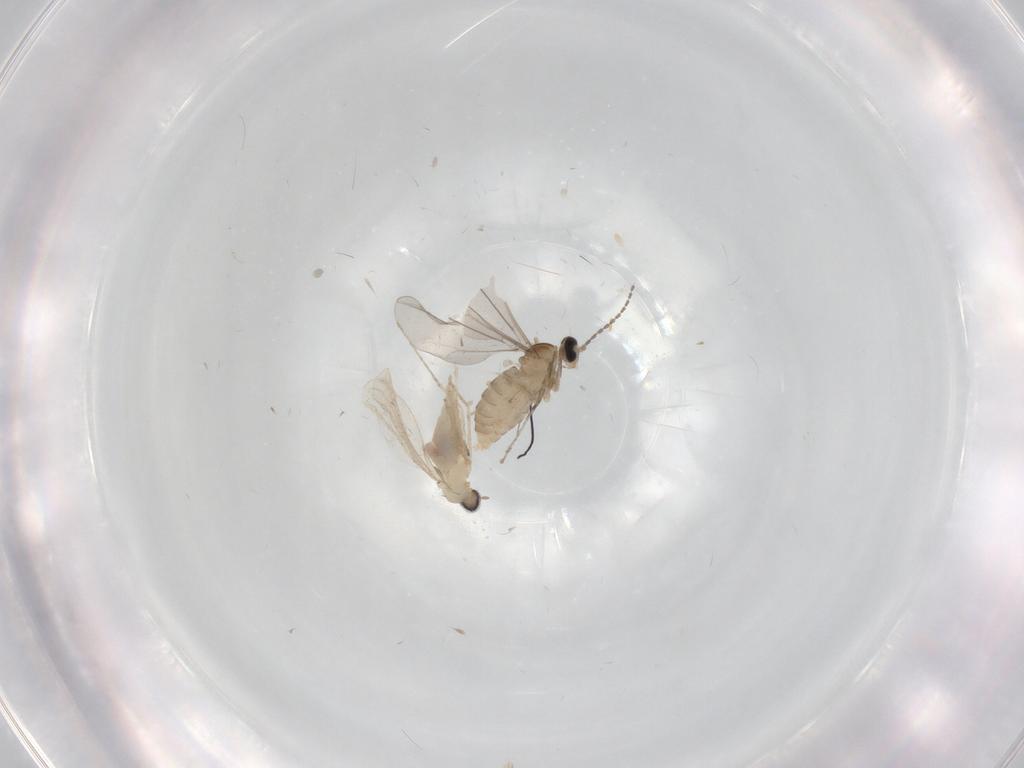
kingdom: Animalia
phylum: Arthropoda
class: Insecta
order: Diptera
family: Cecidomyiidae
